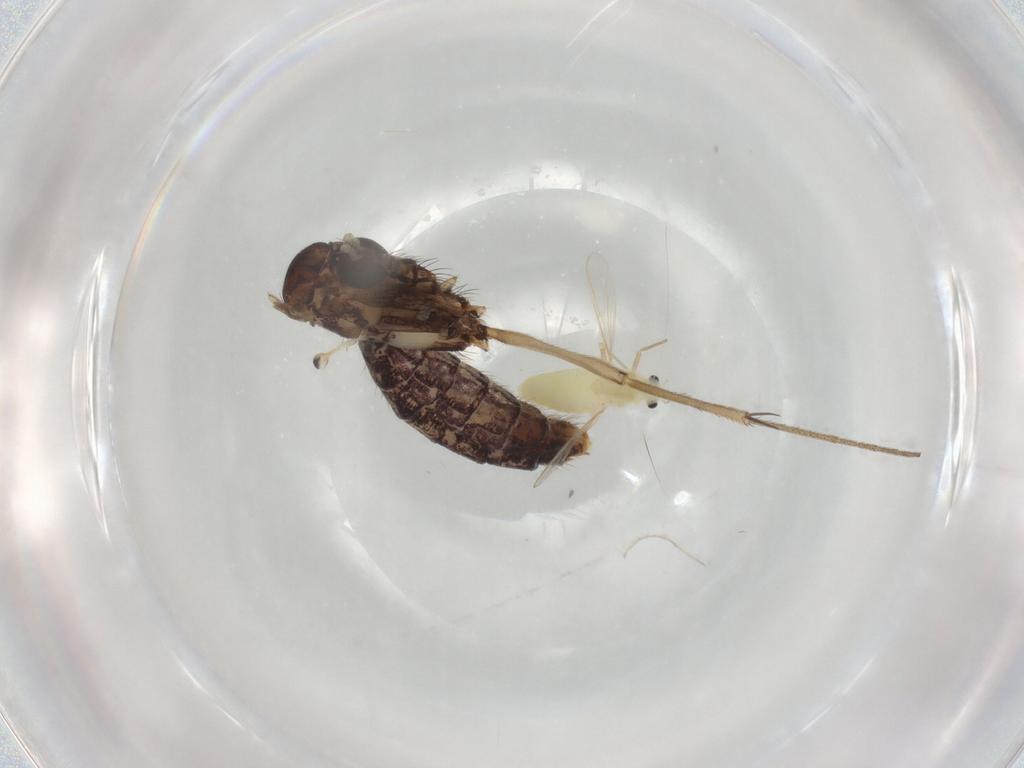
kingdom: Animalia
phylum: Arthropoda
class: Insecta
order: Diptera
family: Chironomidae
